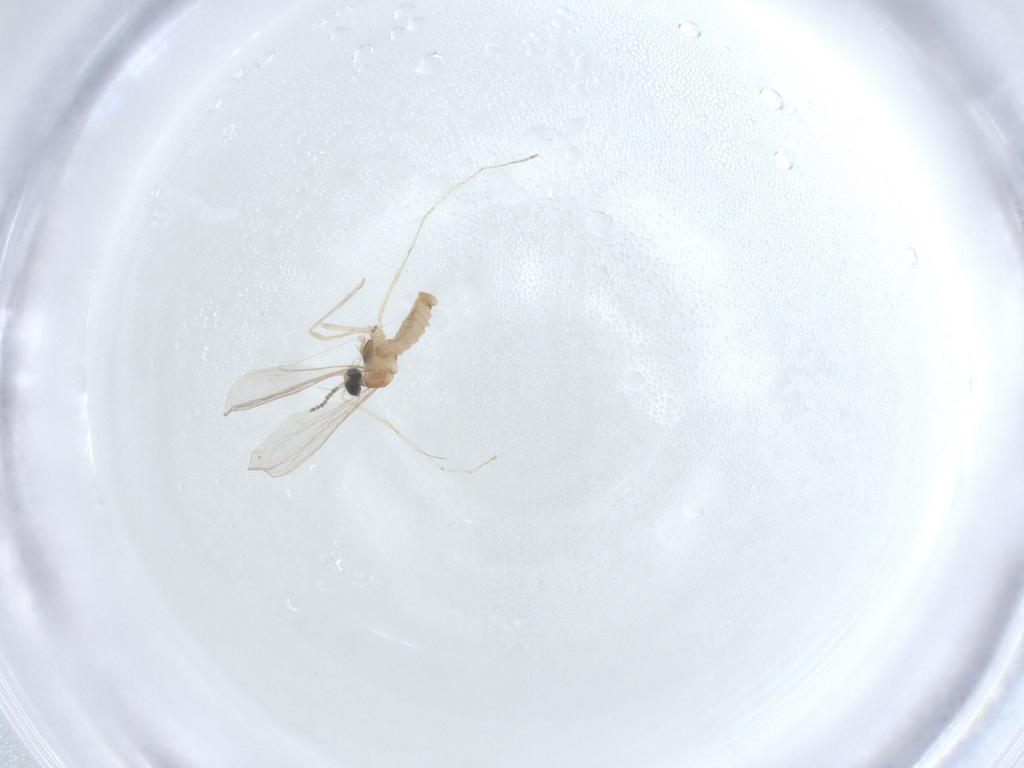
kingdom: Animalia
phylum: Arthropoda
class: Insecta
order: Diptera
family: Cecidomyiidae
